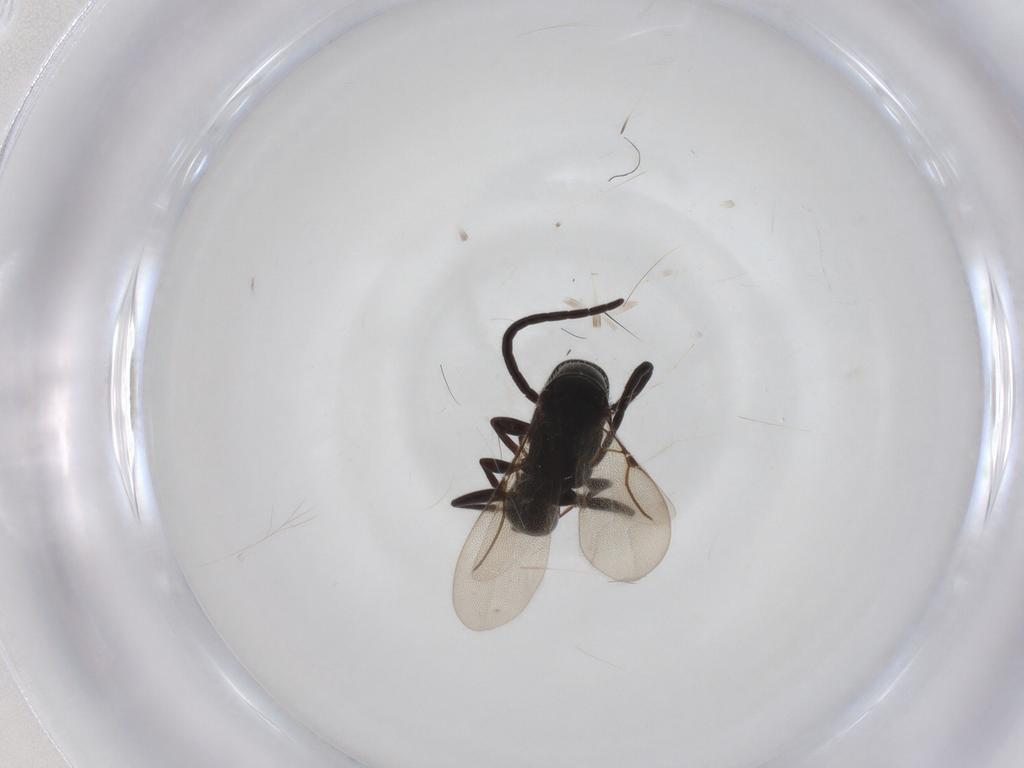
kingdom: Animalia
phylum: Arthropoda
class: Insecta
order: Hymenoptera
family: Bethylidae
